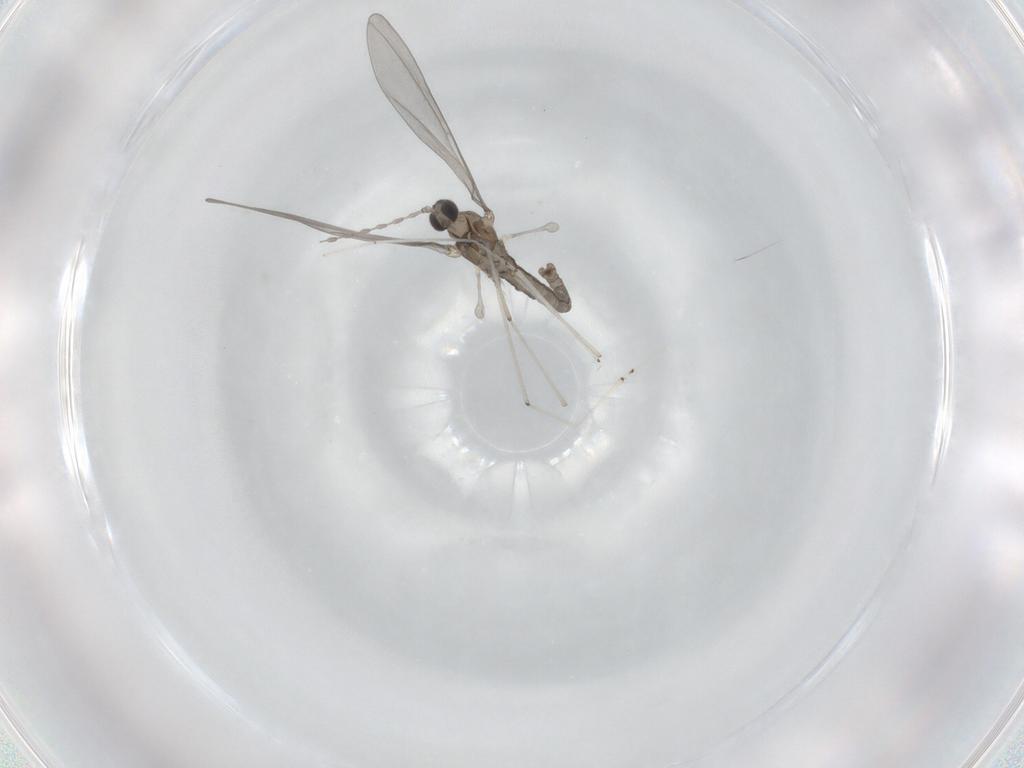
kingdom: Animalia
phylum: Arthropoda
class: Insecta
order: Diptera
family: Cecidomyiidae
